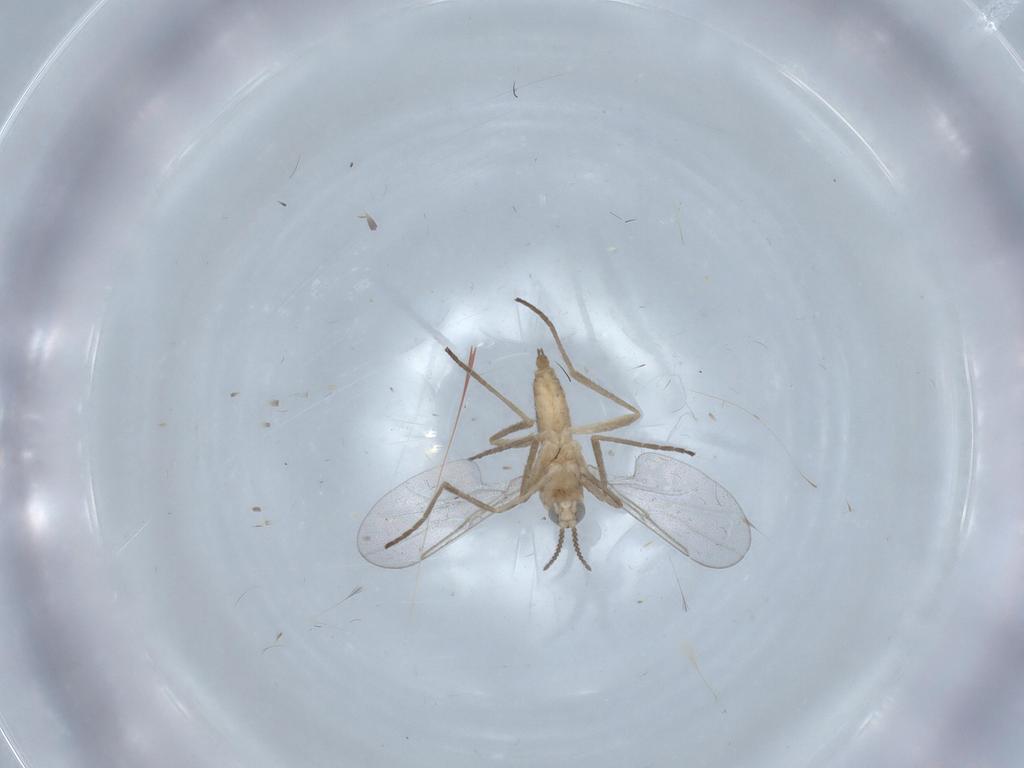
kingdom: Animalia
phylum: Arthropoda
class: Insecta
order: Diptera
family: Cecidomyiidae
